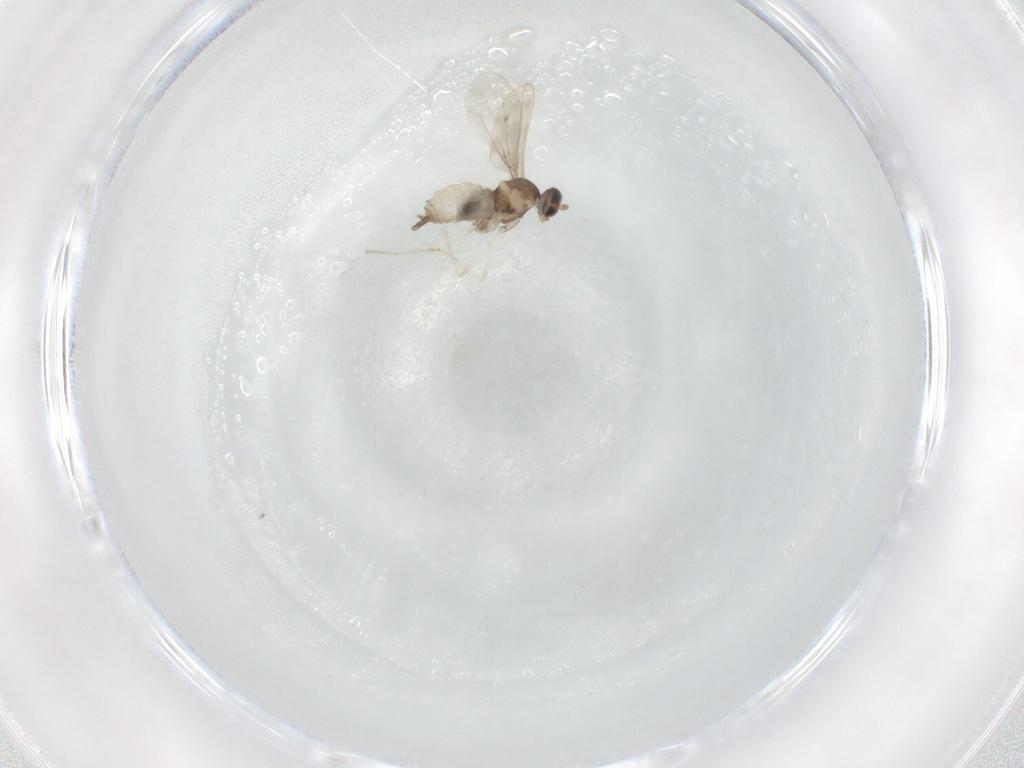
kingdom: Animalia
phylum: Arthropoda
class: Insecta
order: Diptera
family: Cecidomyiidae
